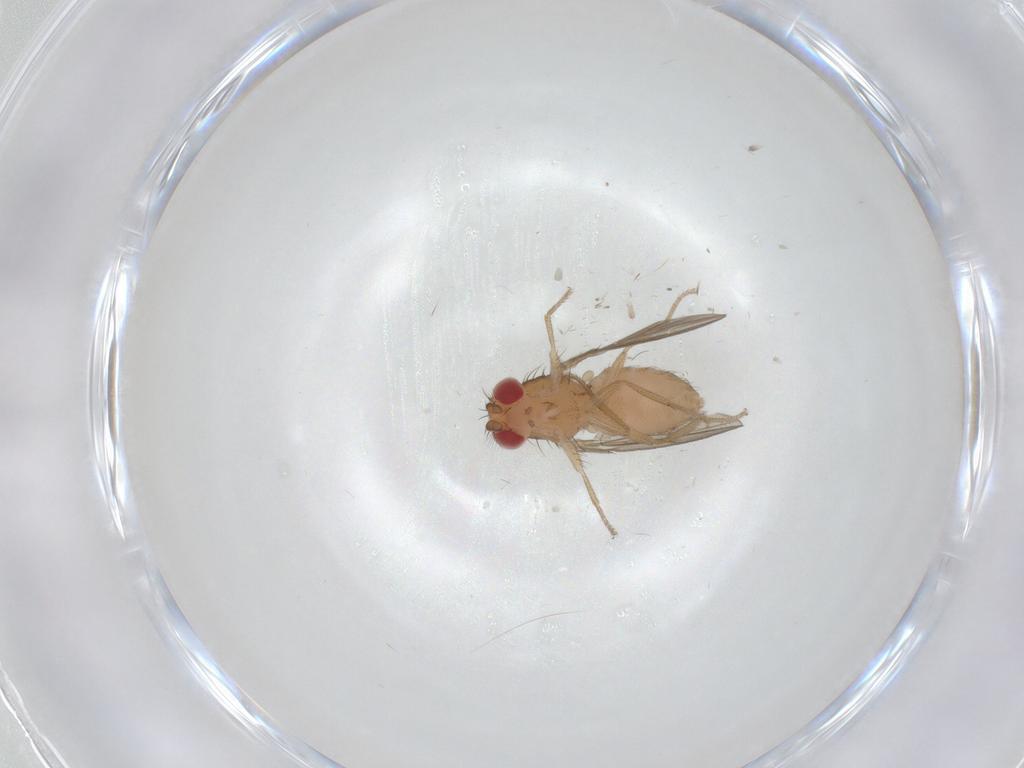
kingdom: Animalia
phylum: Arthropoda
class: Insecta
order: Diptera
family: Drosophilidae
